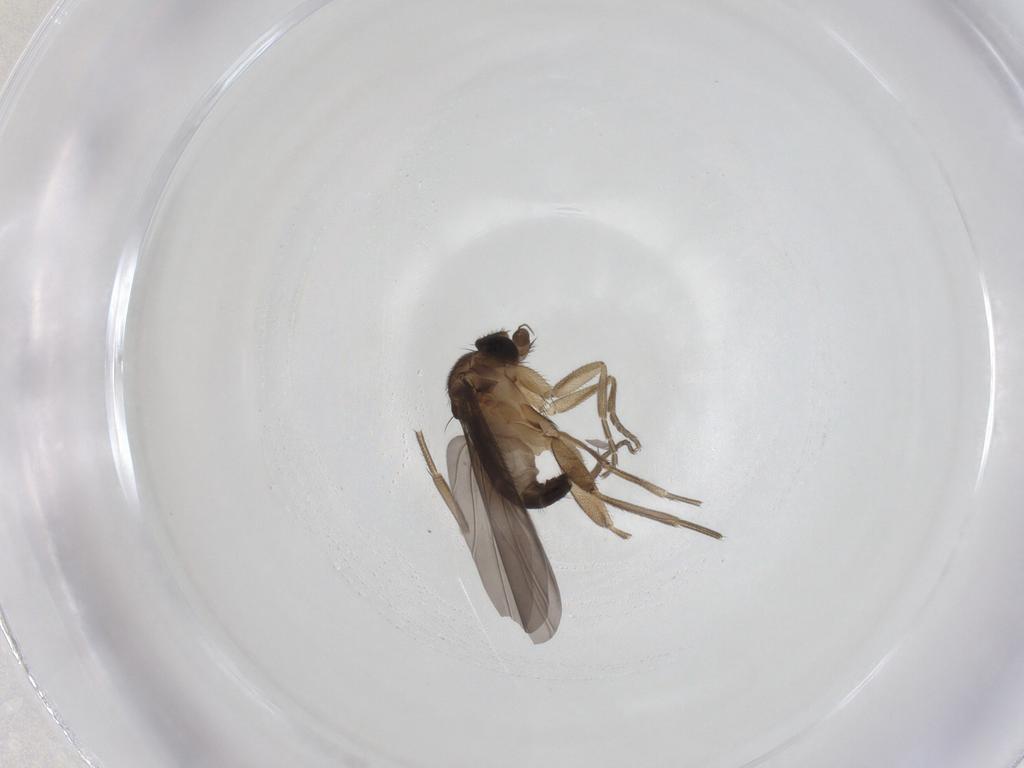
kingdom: Animalia
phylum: Arthropoda
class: Insecta
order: Diptera
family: Phoridae
